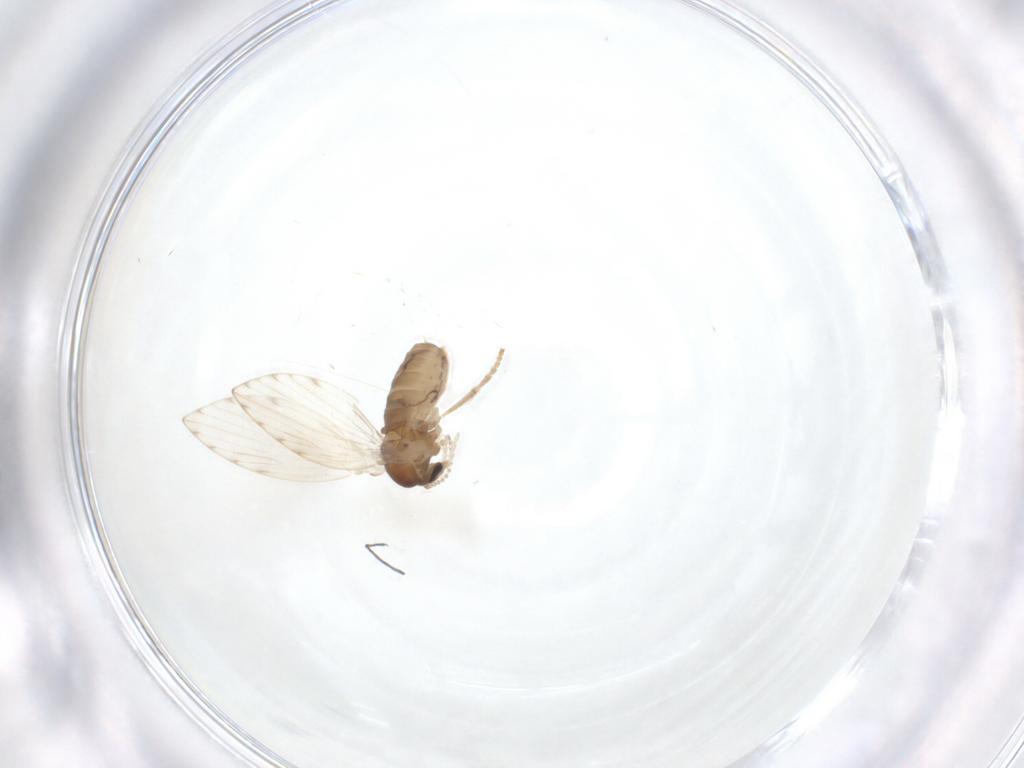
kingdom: Animalia
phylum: Arthropoda
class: Insecta
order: Diptera
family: Psychodidae
